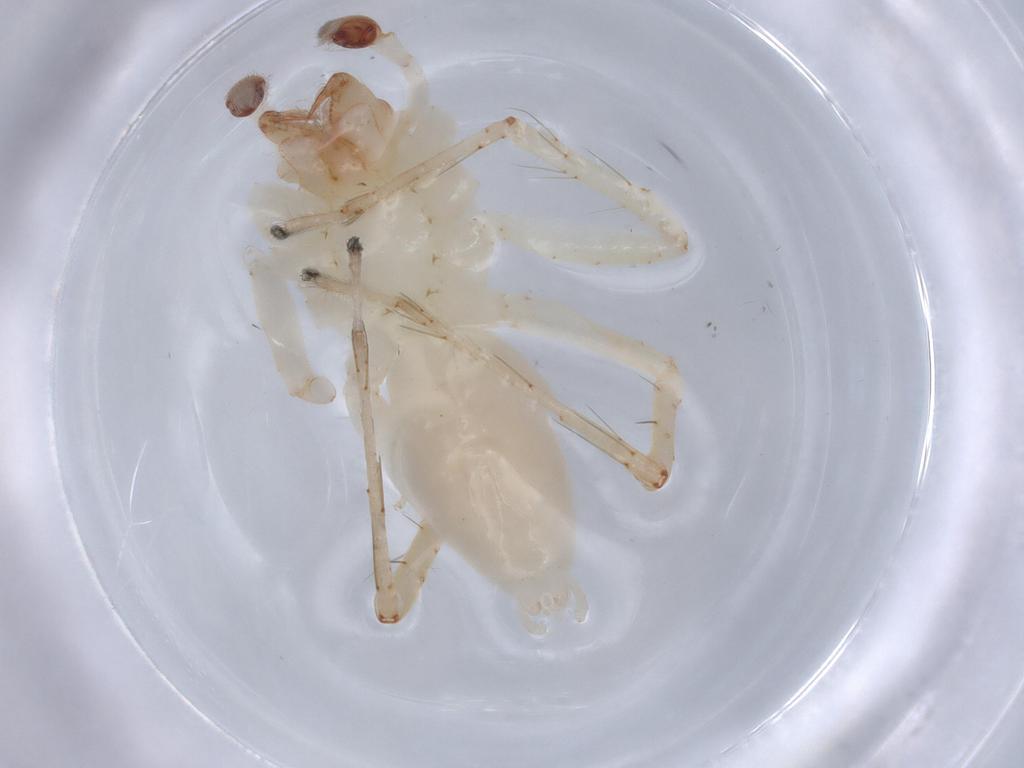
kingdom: Animalia
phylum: Arthropoda
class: Arachnida
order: Araneae
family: Anyphaenidae
